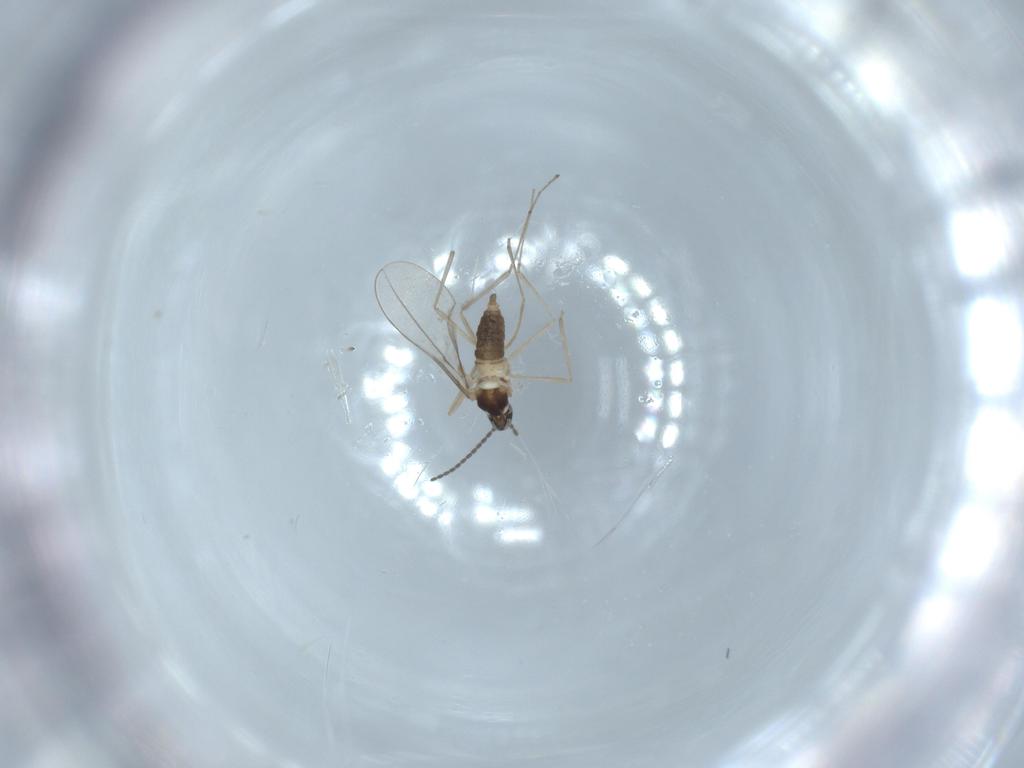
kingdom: Animalia
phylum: Arthropoda
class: Insecta
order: Diptera
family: Cecidomyiidae
